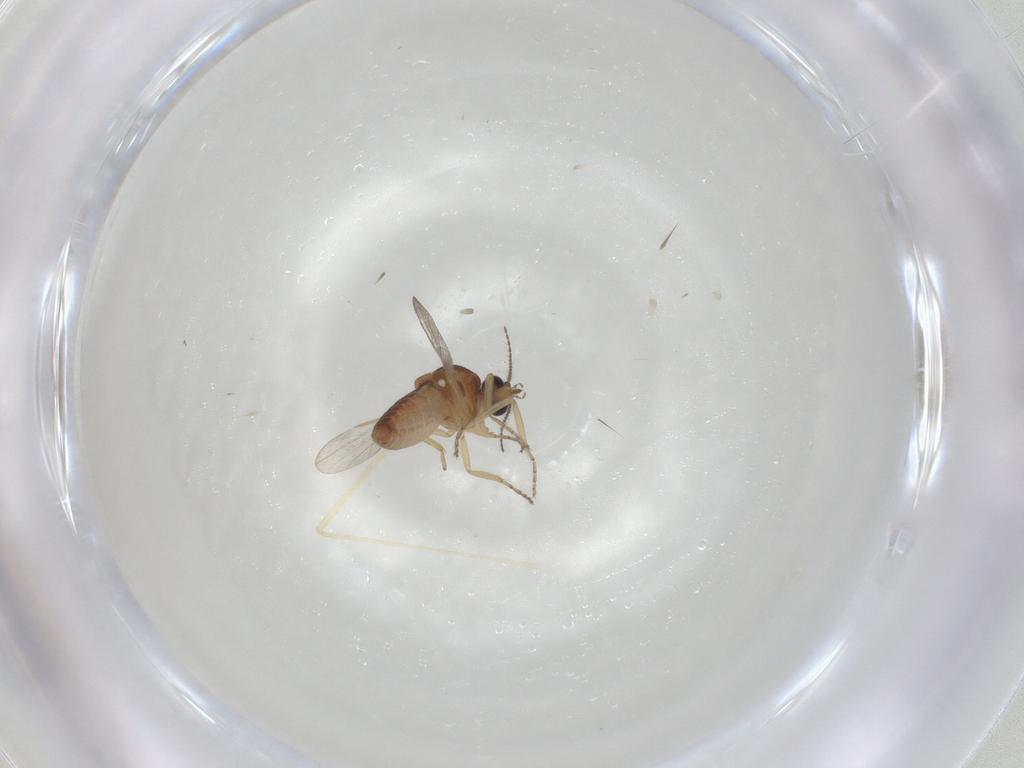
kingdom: Animalia
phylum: Arthropoda
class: Insecta
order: Diptera
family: Ceratopogonidae
